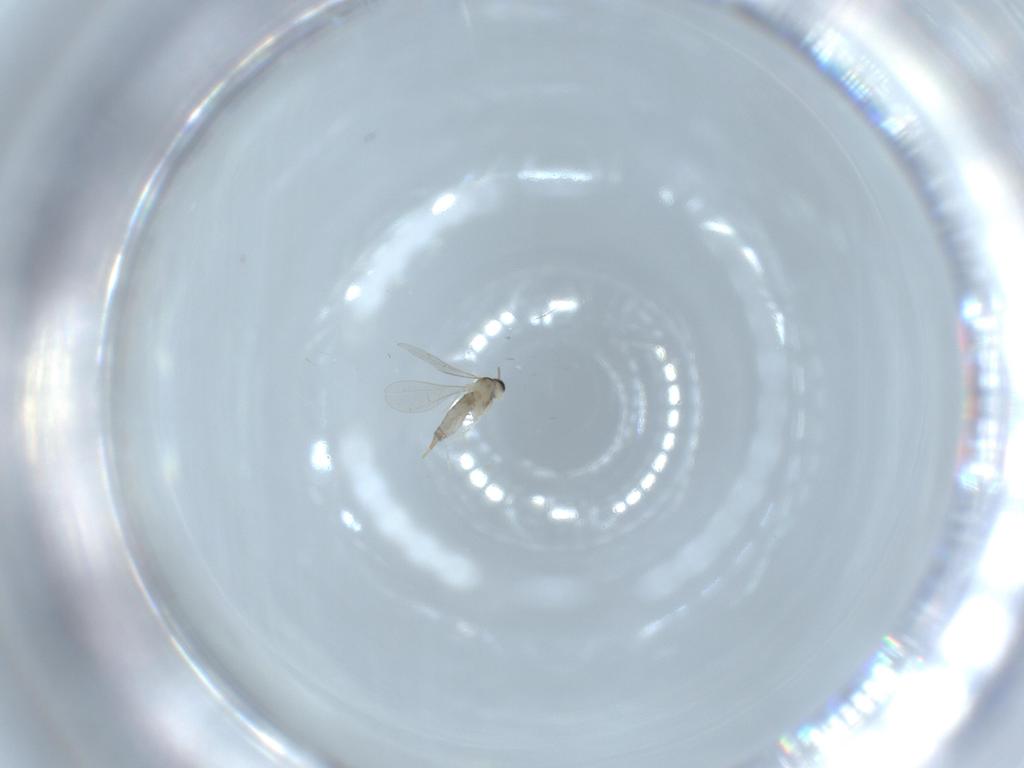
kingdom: Animalia
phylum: Arthropoda
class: Insecta
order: Diptera
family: Ceratopogonidae
